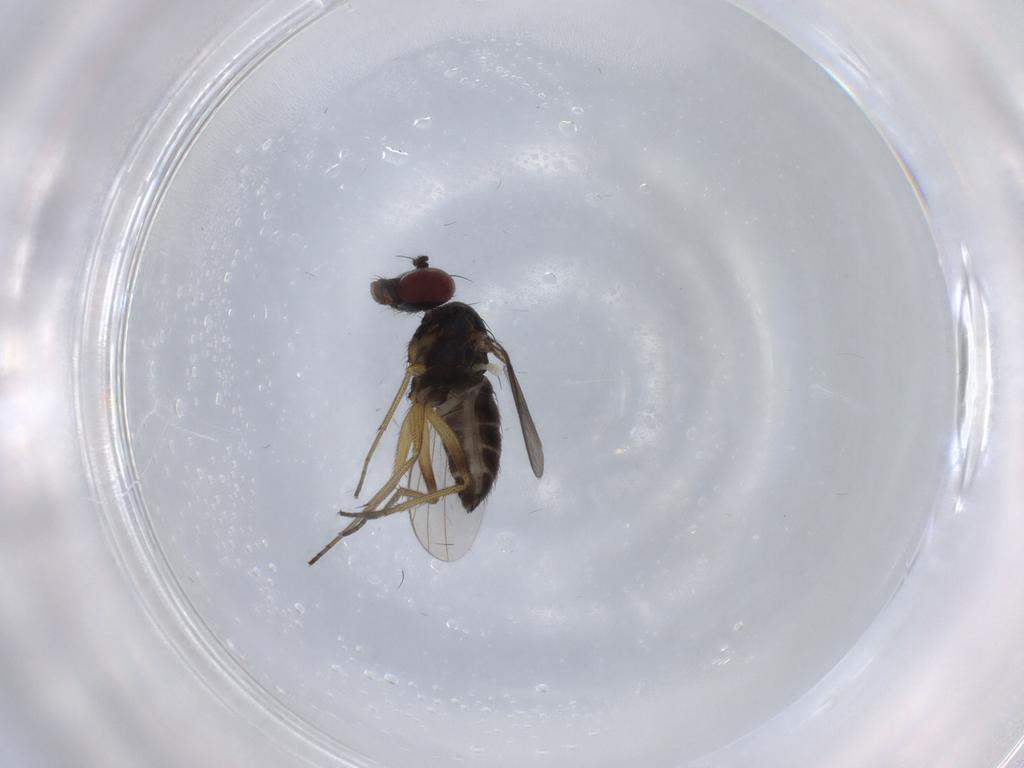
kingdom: Animalia
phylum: Arthropoda
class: Insecta
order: Diptera
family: Dolichopodidae
